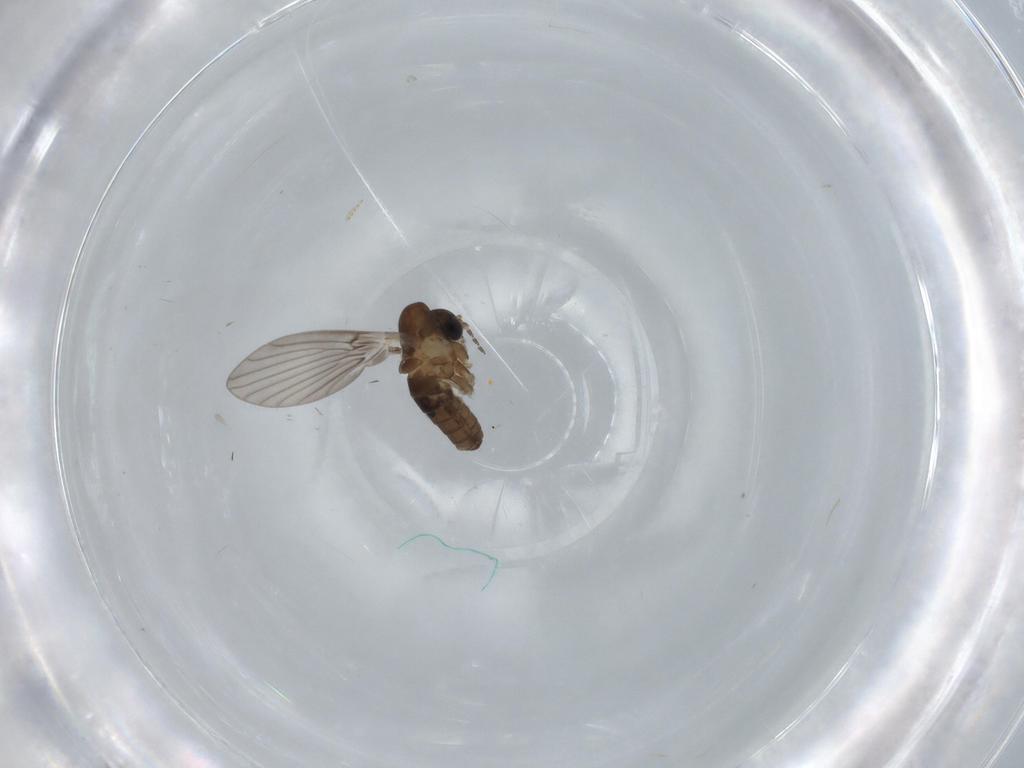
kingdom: Animalia
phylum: Arthropoda
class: Insecta
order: Diptera
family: Psychodidae
